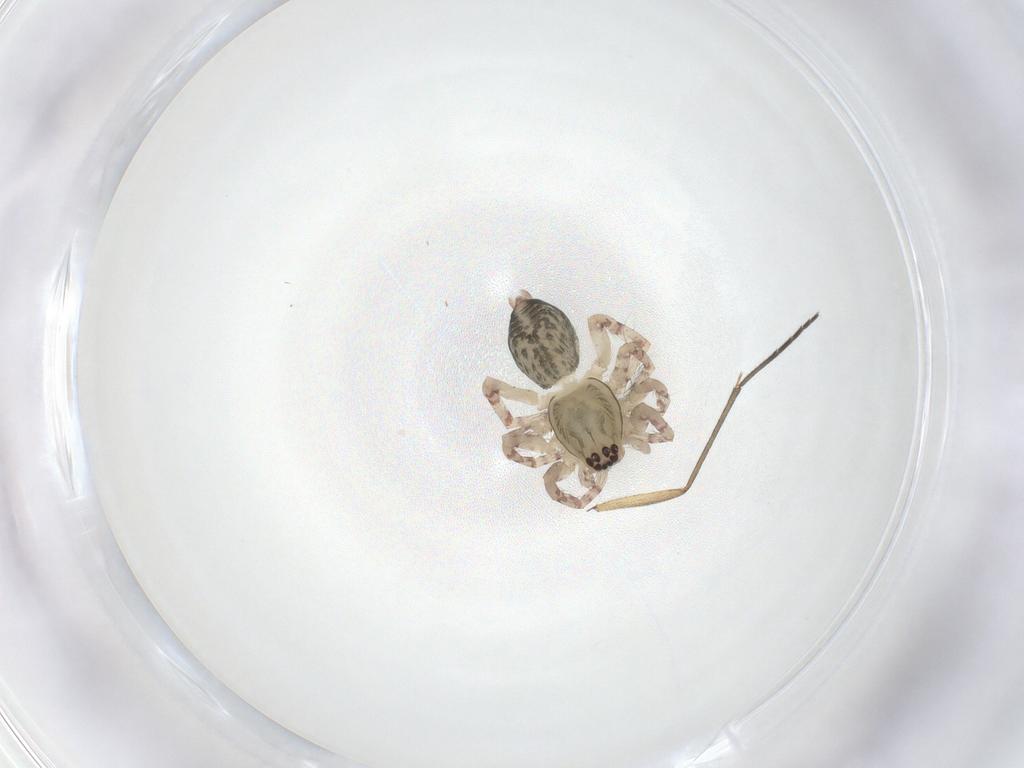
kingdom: Animalia
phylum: Arthropoda
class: Arachnida
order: Araneae
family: Anyphaenidae
